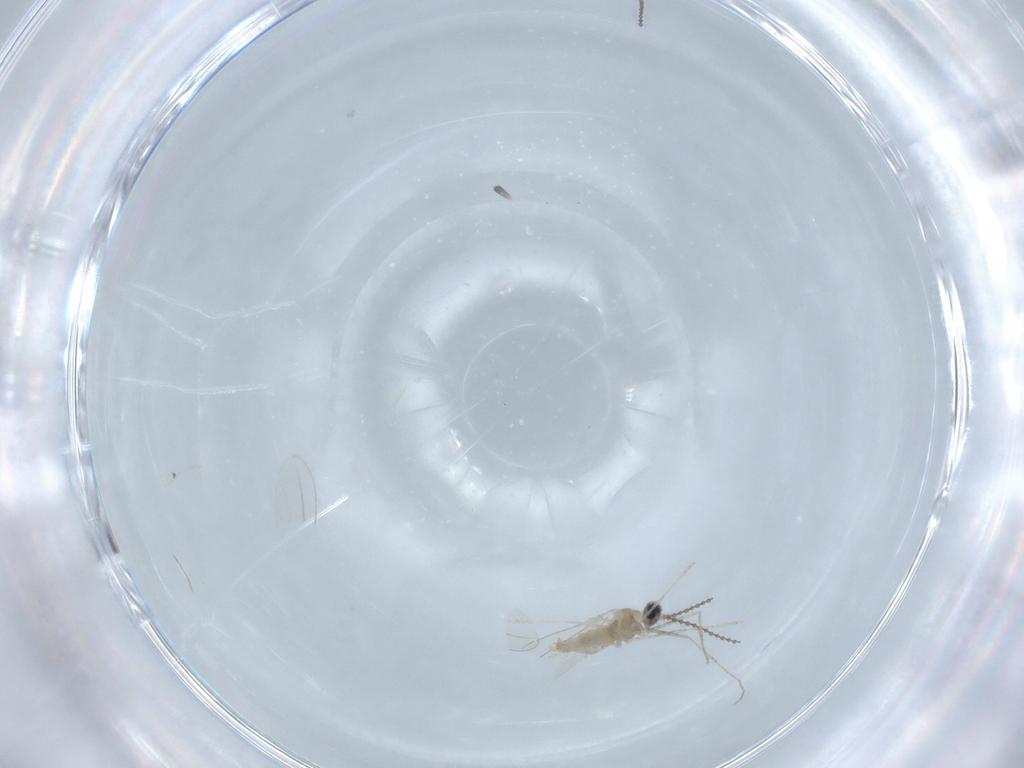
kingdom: Animalia
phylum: Arthropoda
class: Insecta
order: Diptera
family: Cecidomyiidae
